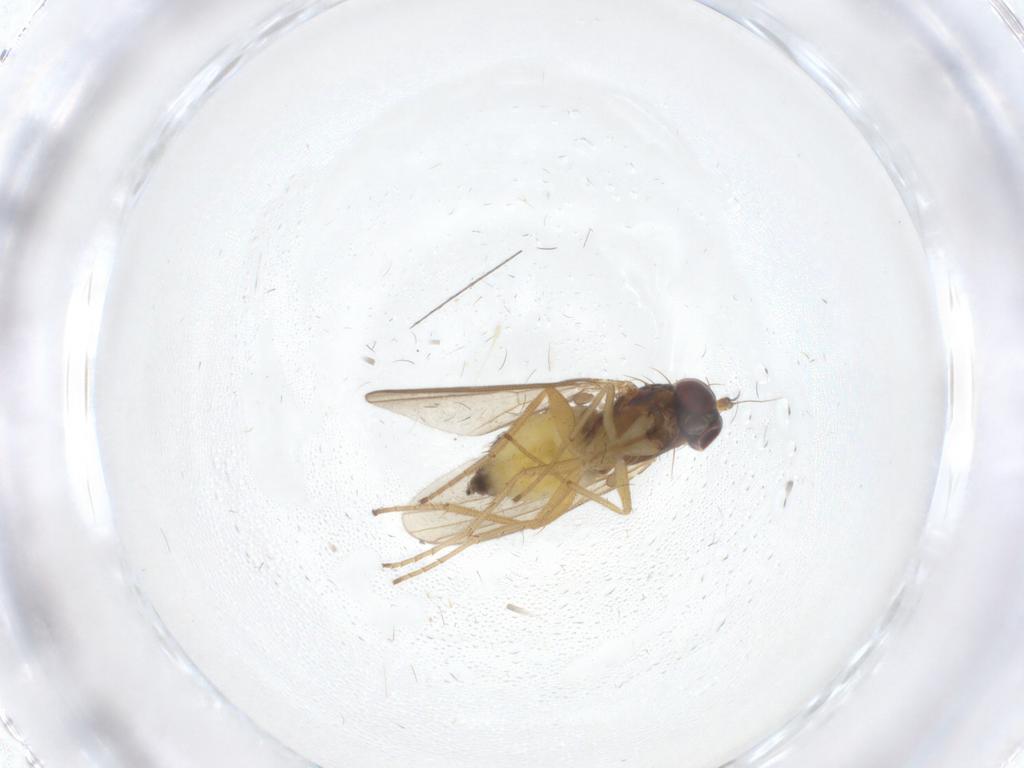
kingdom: Animalia
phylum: Arthropoda
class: Insecta
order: Diptera
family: Dolichopodidae
